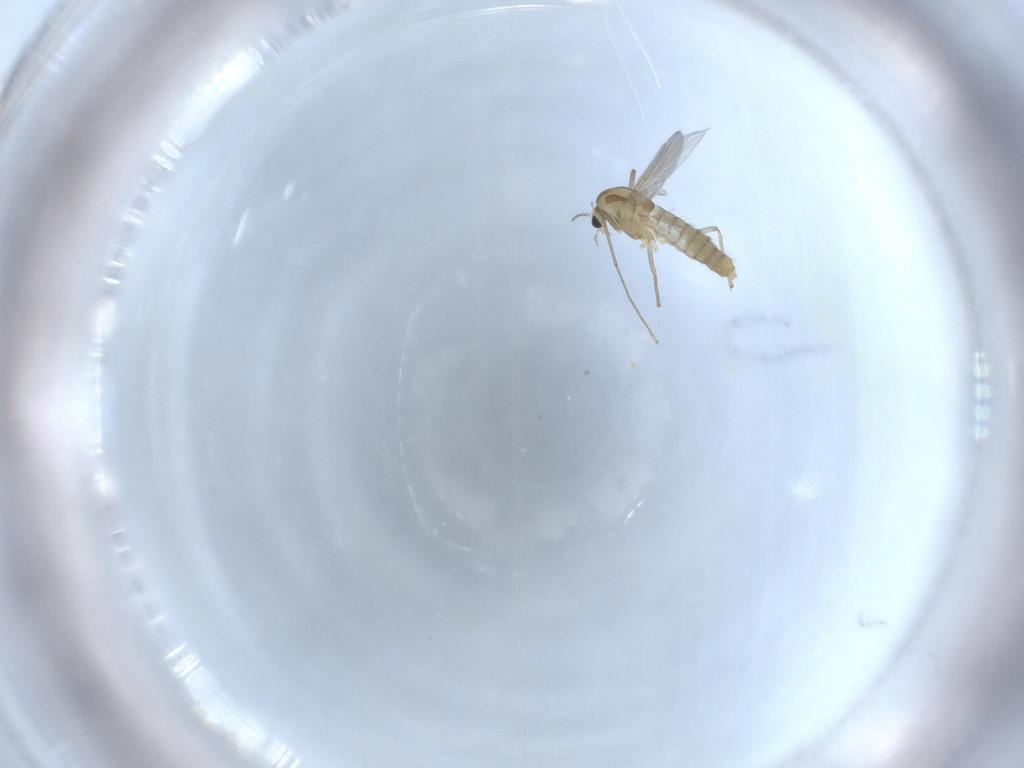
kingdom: Animalia
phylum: Arthropoda
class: Insecta
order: Diptera
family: Chironomidae
